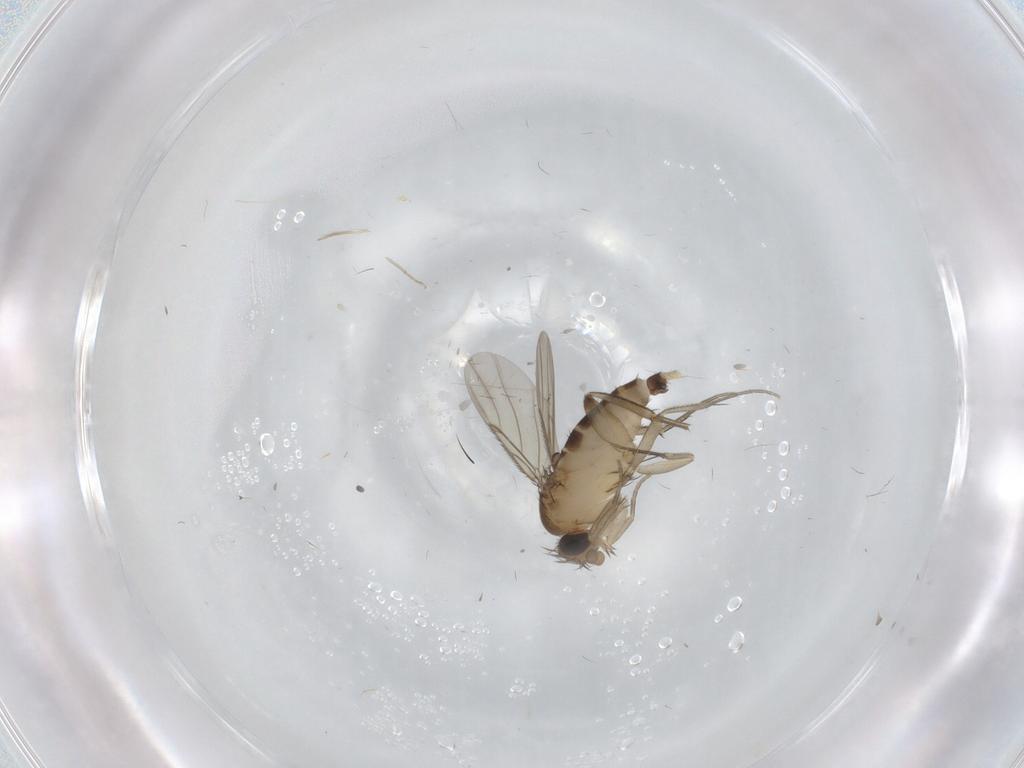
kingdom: Animalia
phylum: Arthropoda
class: Insecta
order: Diptera
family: Phoridae
